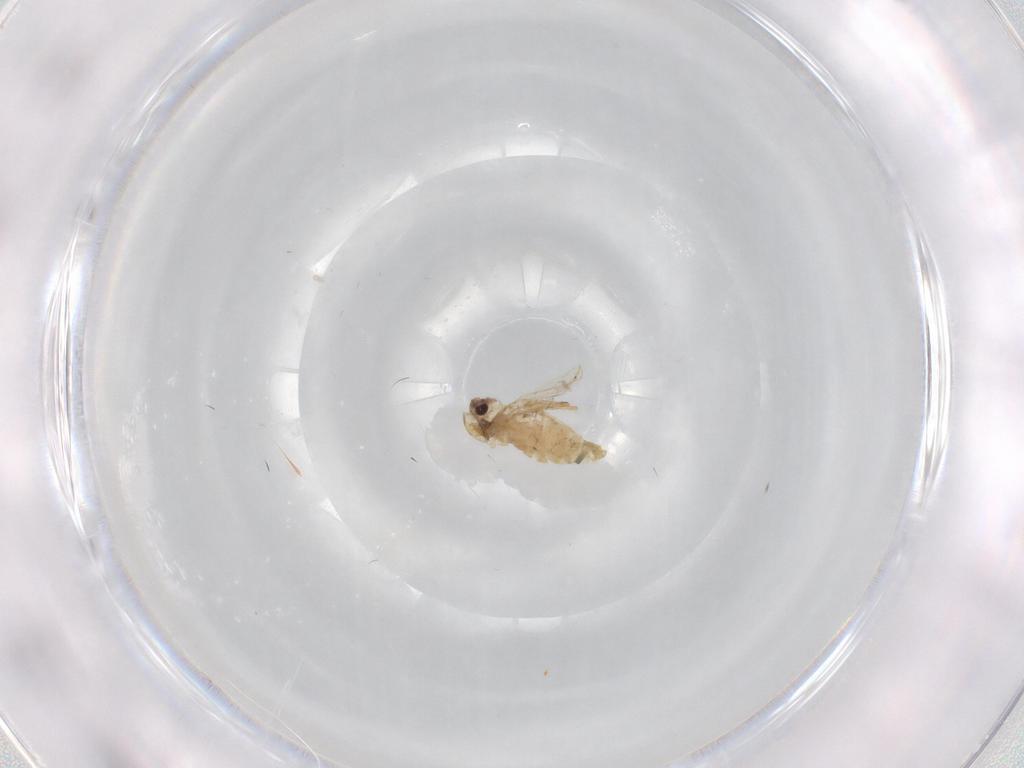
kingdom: Animalia
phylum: Arthropoda
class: Insecta
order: Diptera
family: Chironomidae
